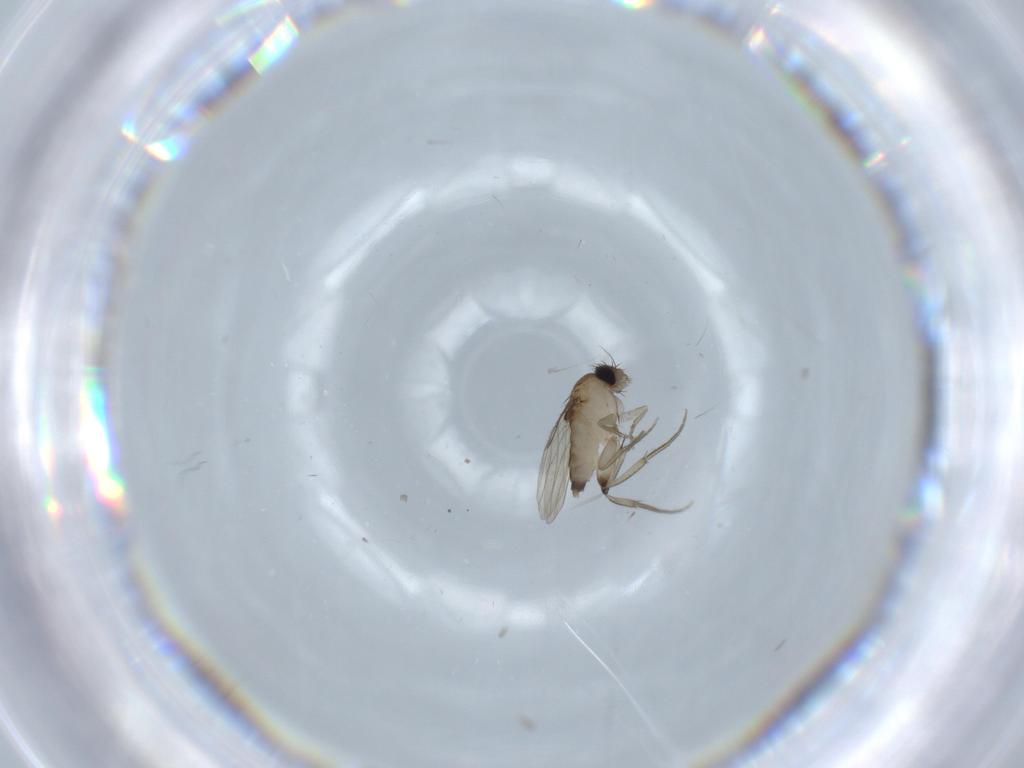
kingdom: Animalia
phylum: Arthropoda
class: Insecta
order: Diptera
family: Phoridae
